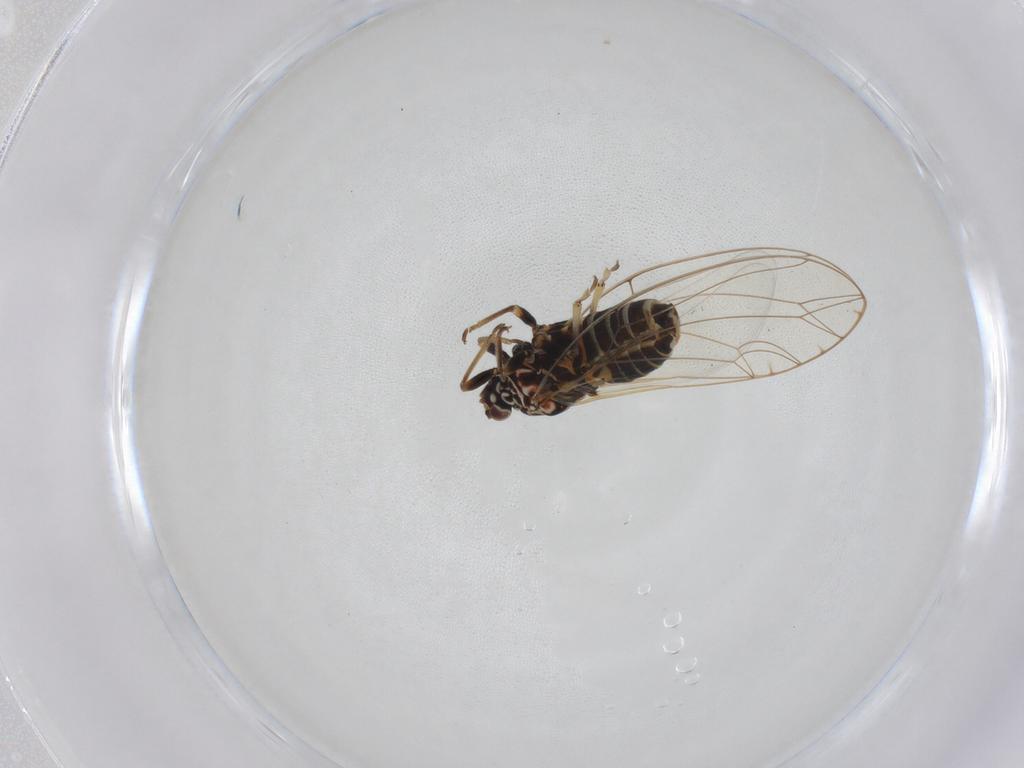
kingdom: Animalia
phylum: Arthropoda
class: Insecta
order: Hemiptera
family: Triozidae
